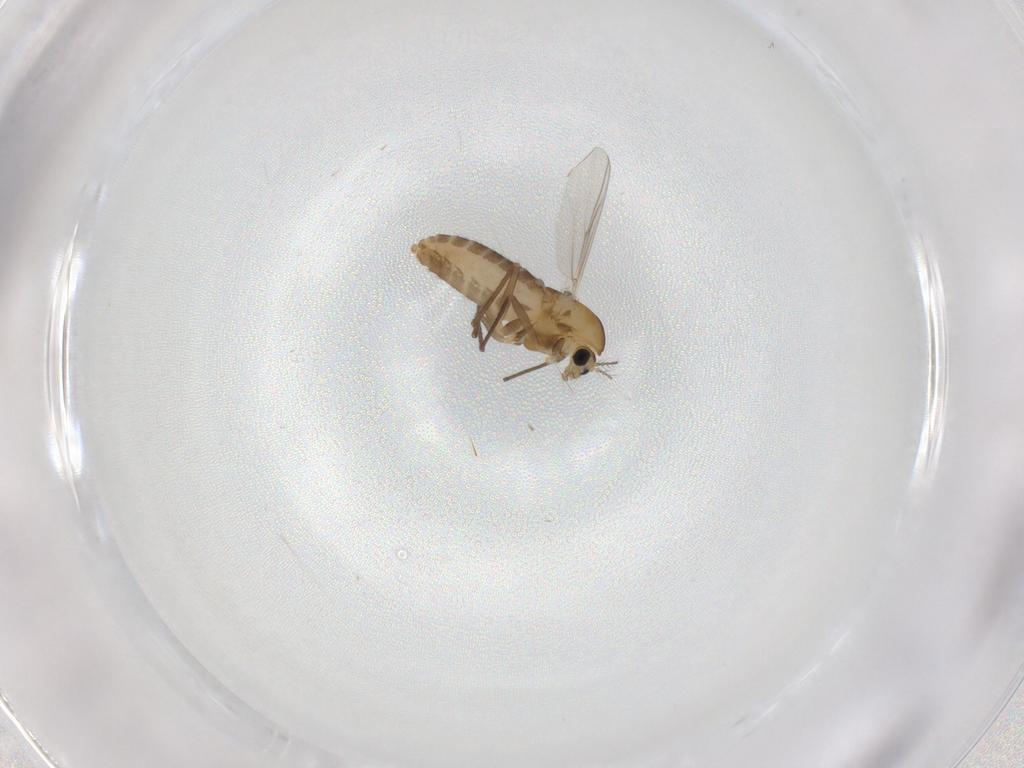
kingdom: Animalia
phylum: Arthropoda
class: Insecta
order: Diptera
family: Chironomidae
